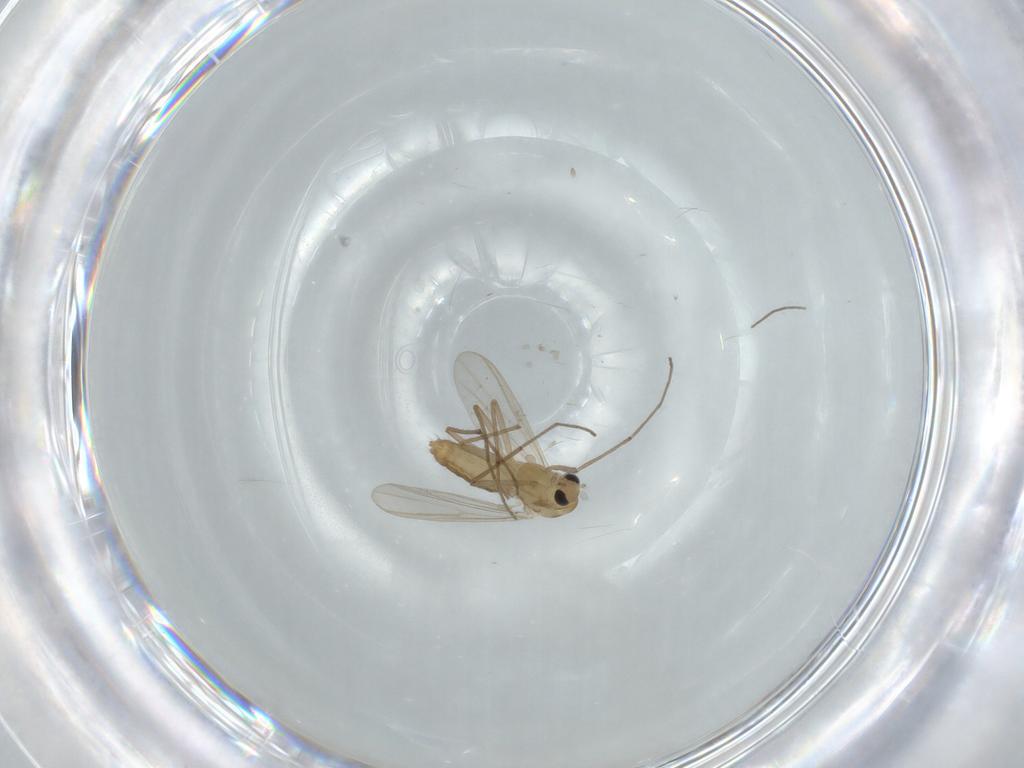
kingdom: Animalia
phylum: Arthropoda
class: Insecta
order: Diptera
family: Chironomidae
